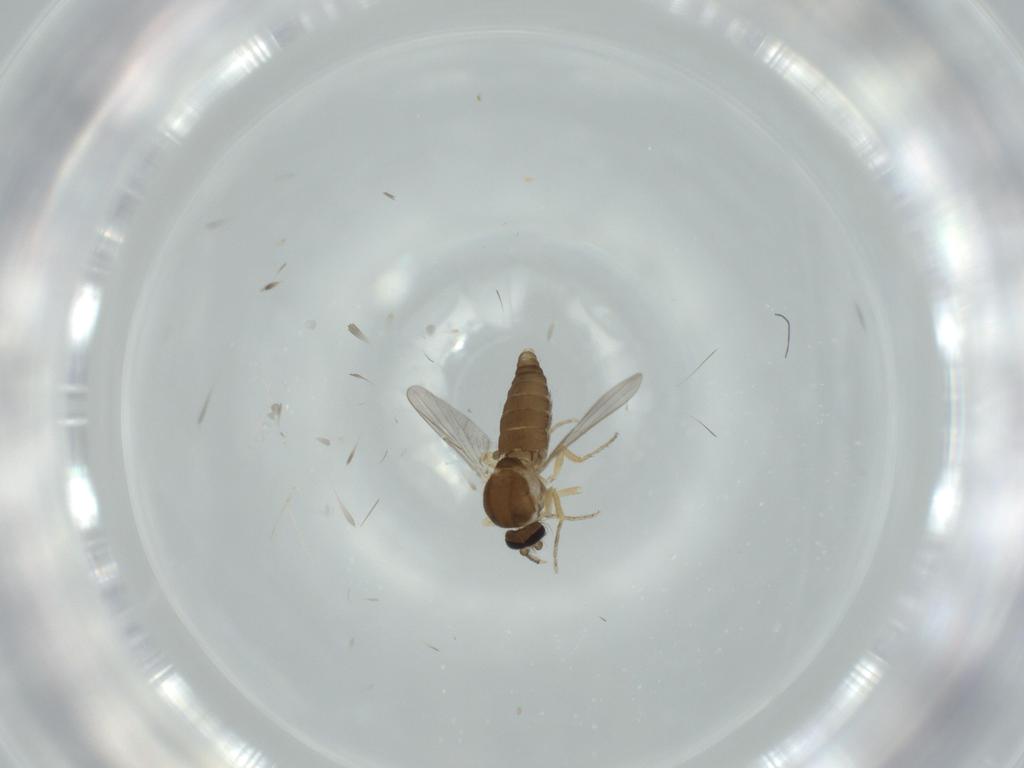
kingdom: Animalia
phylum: Arthropoda
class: Insecta
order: Diptera
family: Ceratopogonidae
